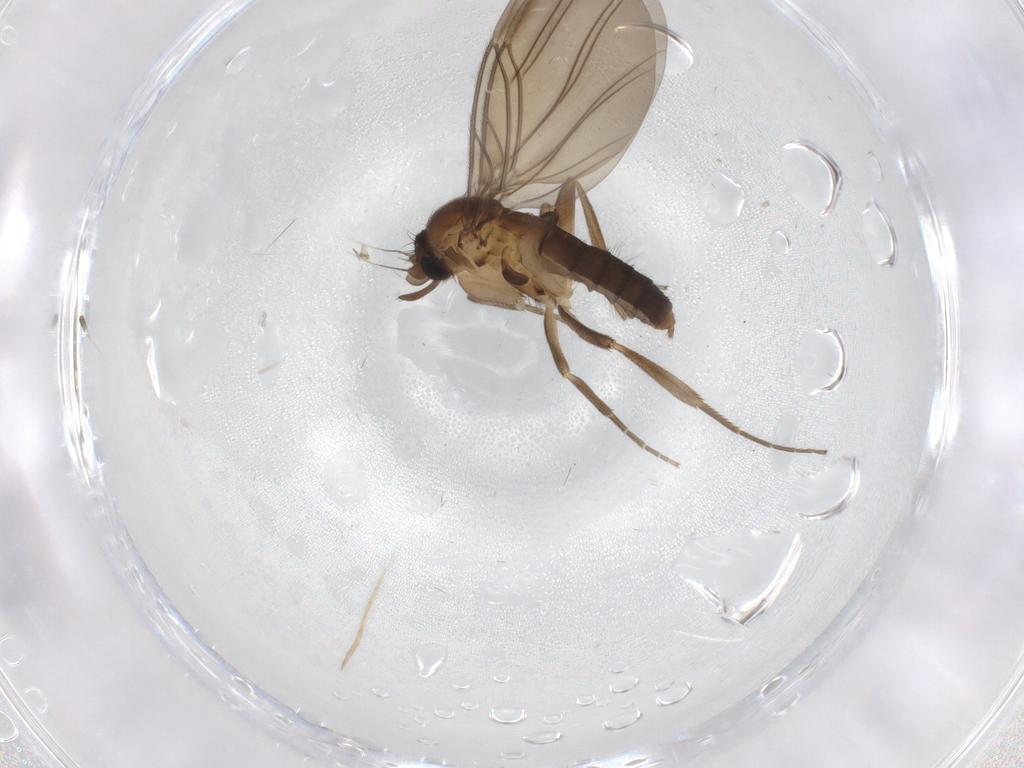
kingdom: Animalia
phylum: Arthropoda
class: Insecta
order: Diptera
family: Phoridae
